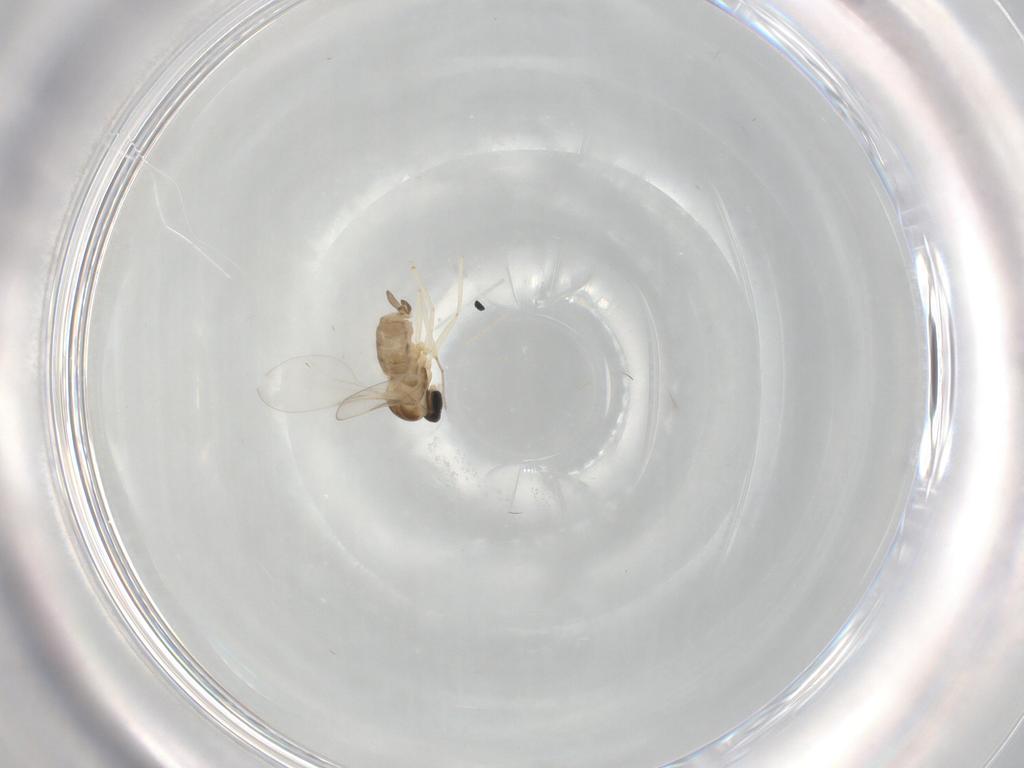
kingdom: Animalia
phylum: Arthropoda
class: Insecta
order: Diptera
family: Cecidomyiidae
